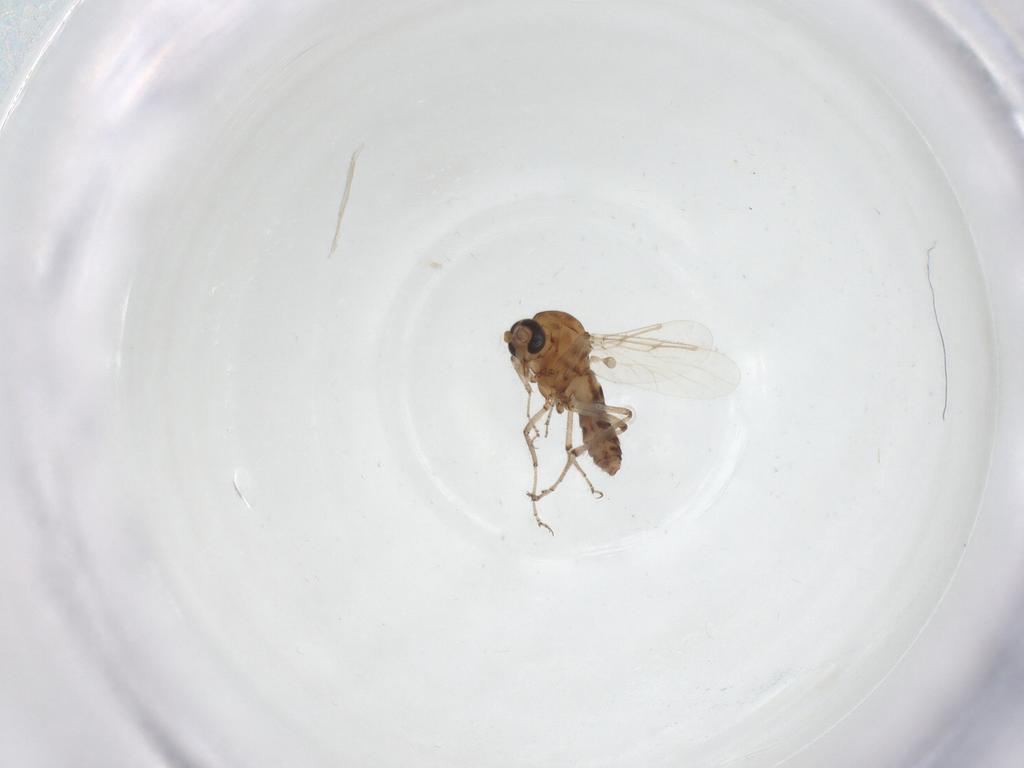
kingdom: Animalia
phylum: Arthropoda
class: Insecta
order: Diptera
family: Ceratopogonidae
